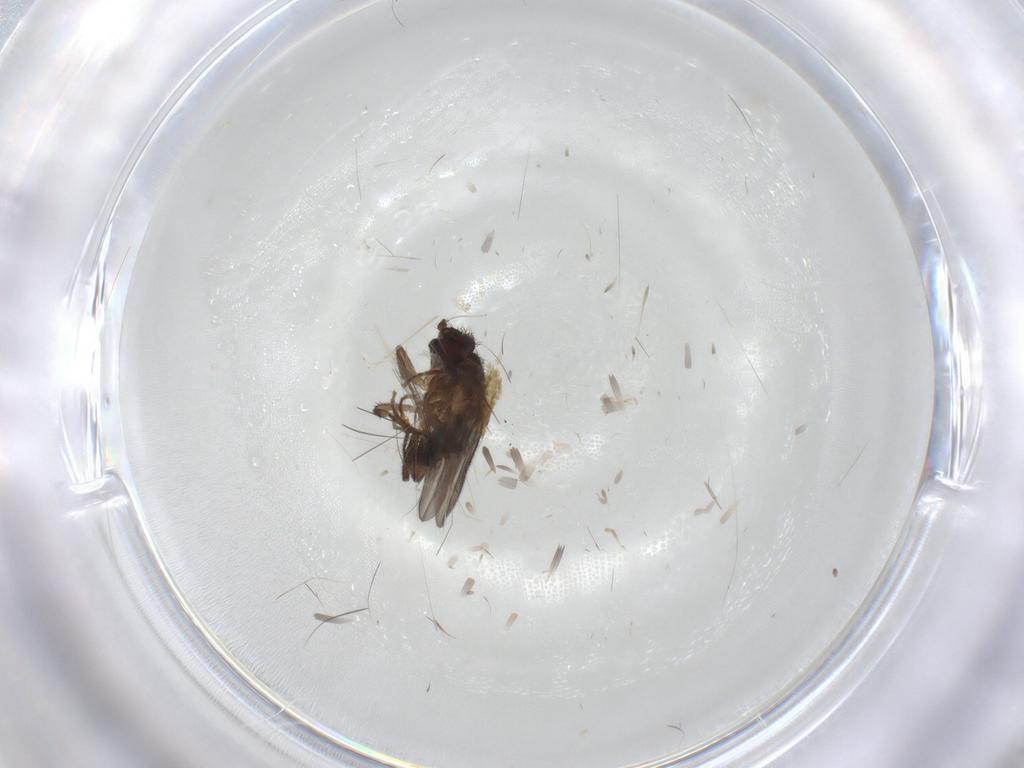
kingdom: Animalia
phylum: Arthropoda
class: Insecta
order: Diptera
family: Sphaeroceridae
